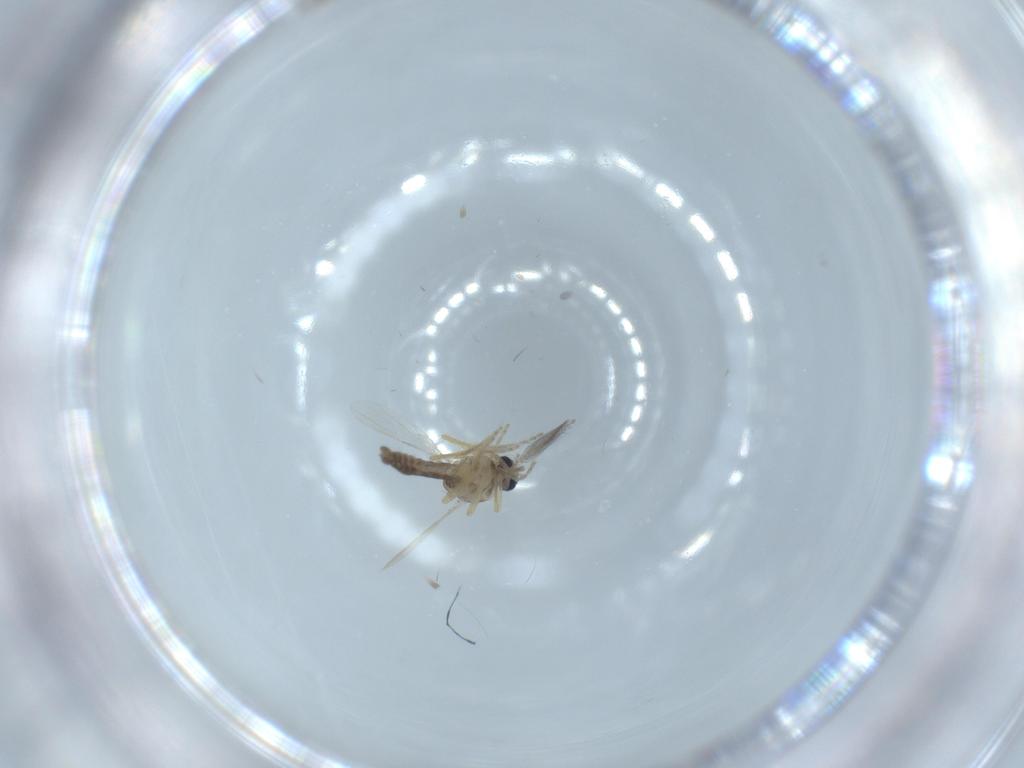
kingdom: Animalia
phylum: Arthropoda
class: Insecta
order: Diptera
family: Ceratopogonidae
